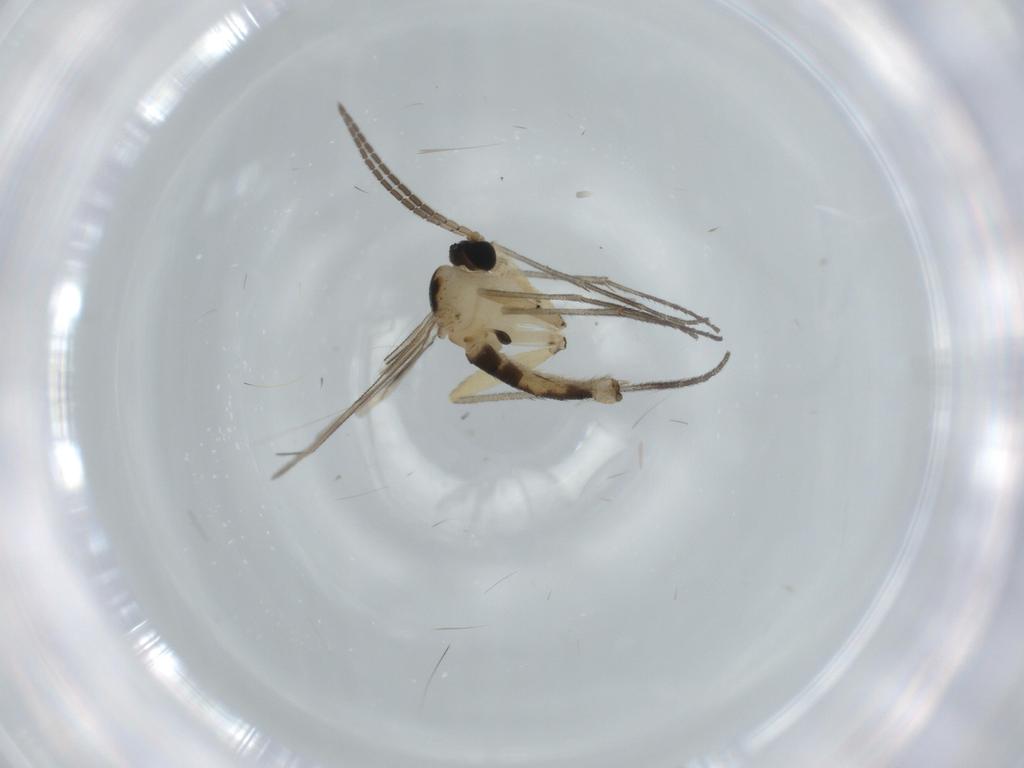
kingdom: Animalia
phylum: Arthropoda
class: Insecta
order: Diptera
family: Sciaridae
